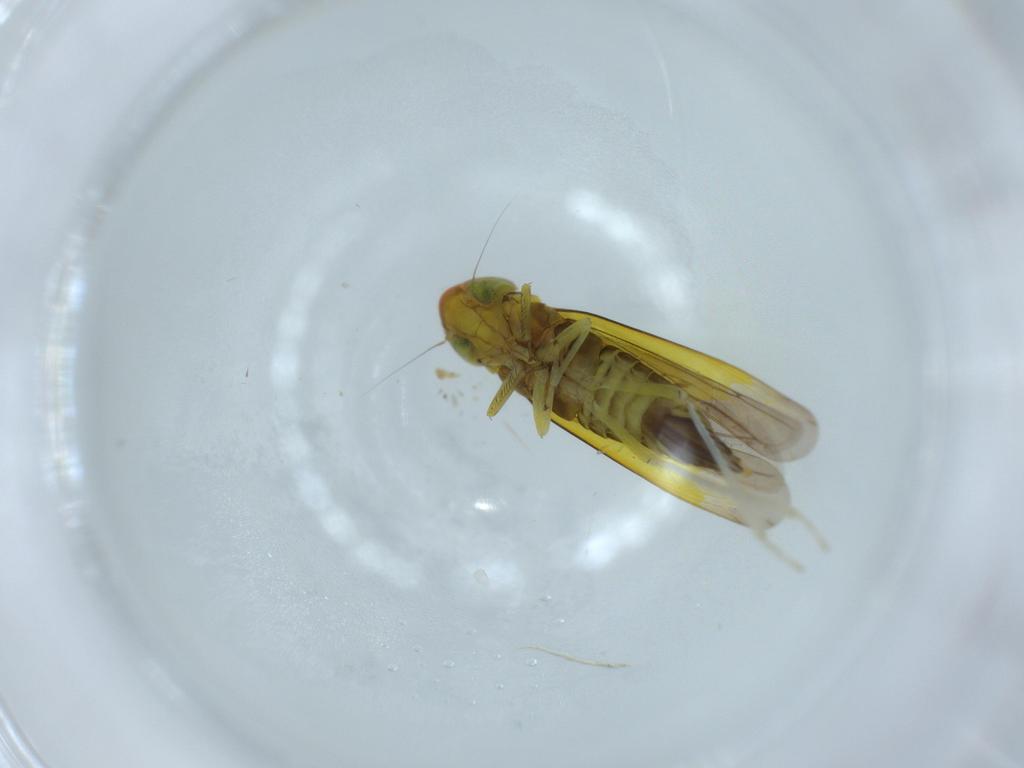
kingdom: Animalia
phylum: Arthropoda
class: Insecta
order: Hemiptera
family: Cicadellidae
